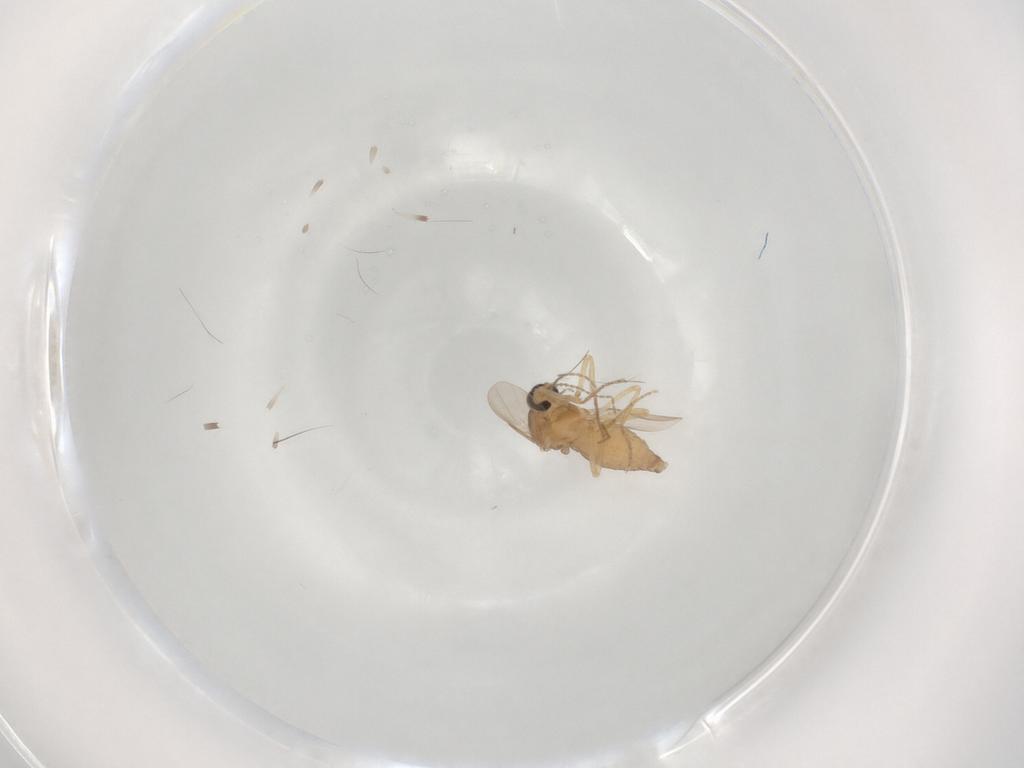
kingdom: Animalia
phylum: Arthropoda
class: Insecta
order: Diptera
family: Ceratopogonidae
